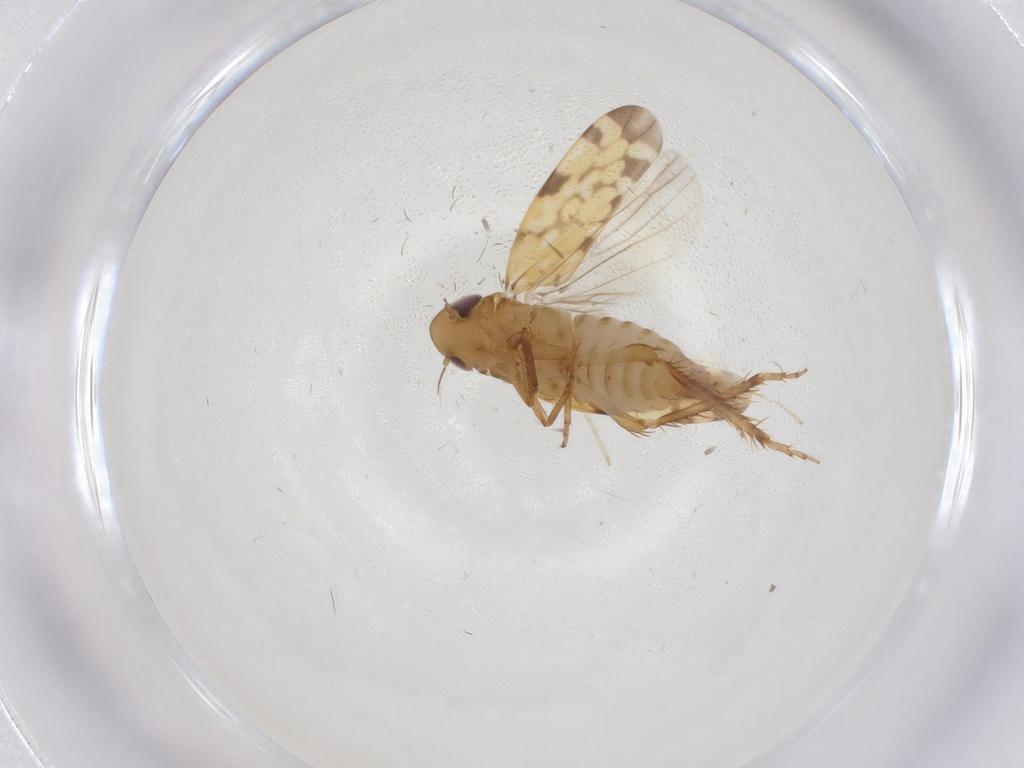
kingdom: Animalia
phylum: Arthropoda
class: Insecta
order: Hemiptera
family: Cicadellidae
